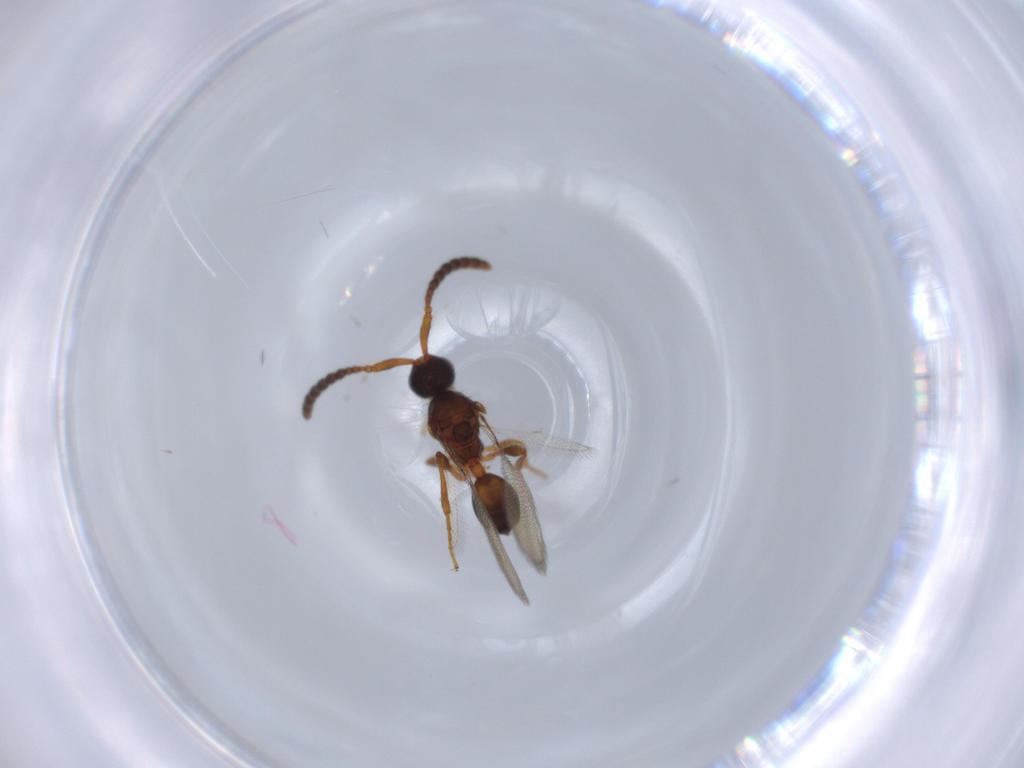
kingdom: Animalia
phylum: Arthropoda
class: Insecta
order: Hymenoptera
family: Diapriidae
